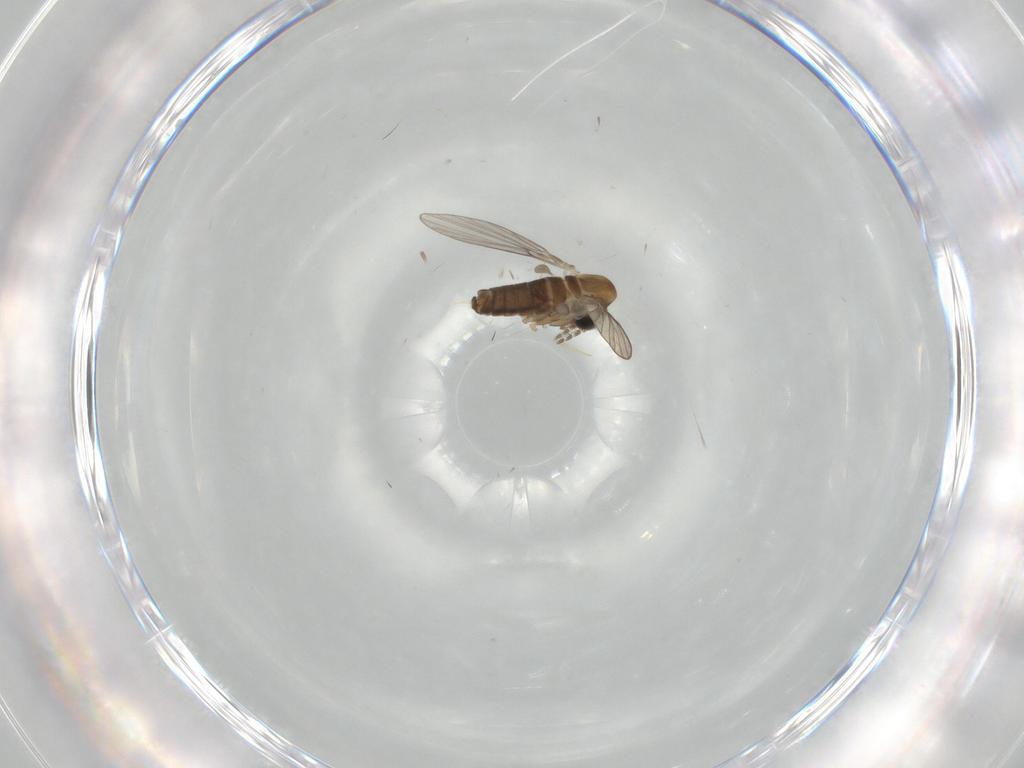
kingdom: Animalia
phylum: Arthropoda
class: Insecta
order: Diptera
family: Psychodidae
